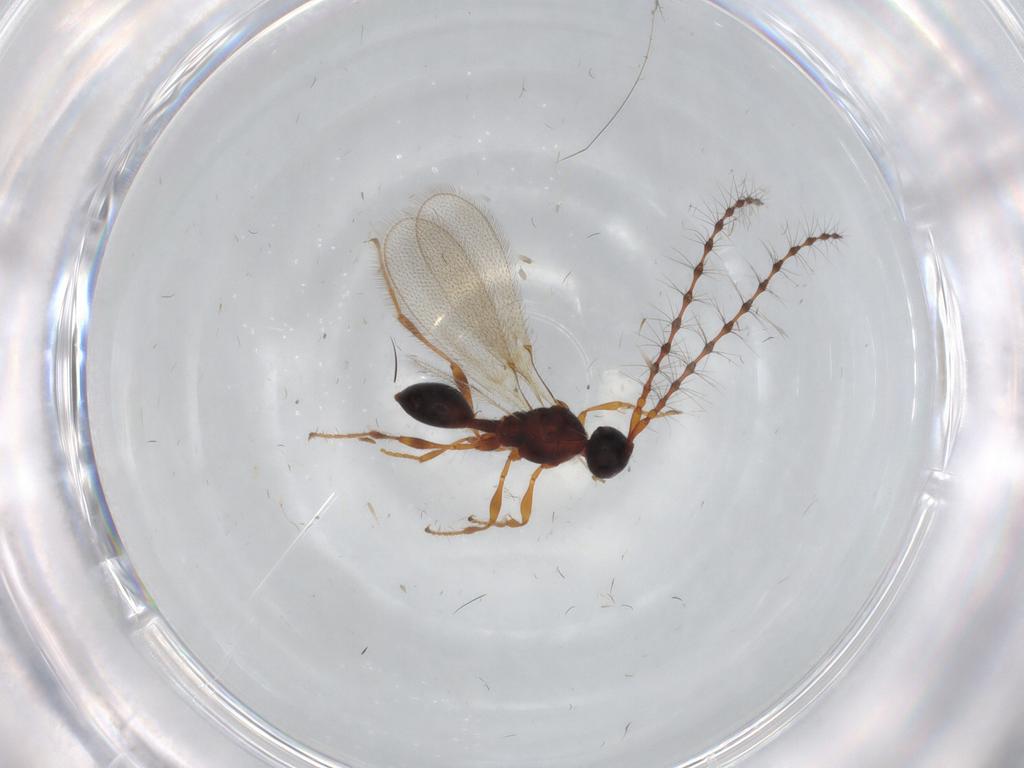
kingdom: Animalia
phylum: Arthropoda
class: Insecta
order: Hymenoptera
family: Diapriidae
